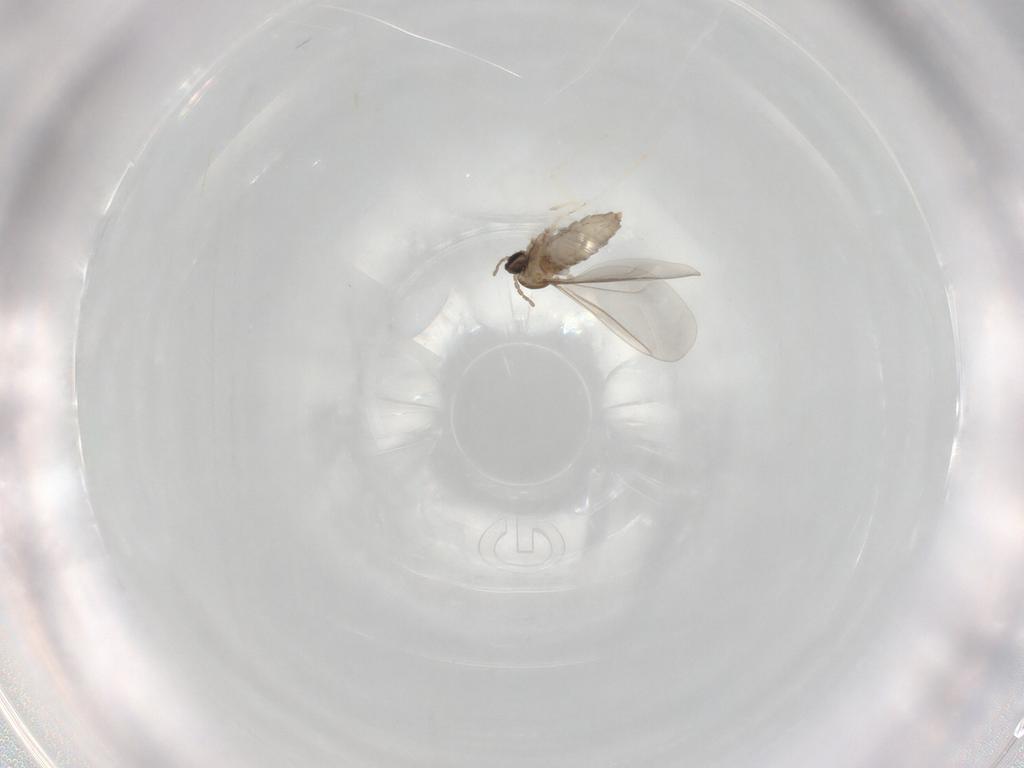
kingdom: Animalia
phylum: Arthropoda
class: Insecta
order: Diptera
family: Cecidomyiidae
